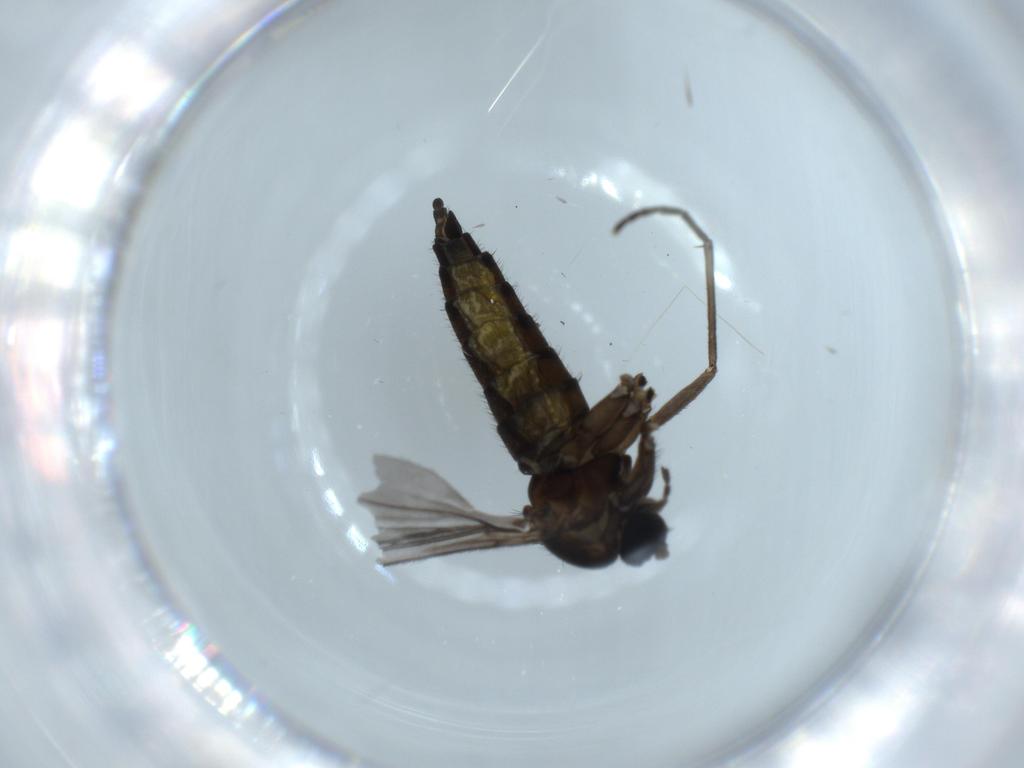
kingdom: Animalia
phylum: Arthropoda
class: Insecta
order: Diptera
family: Sciaridae
